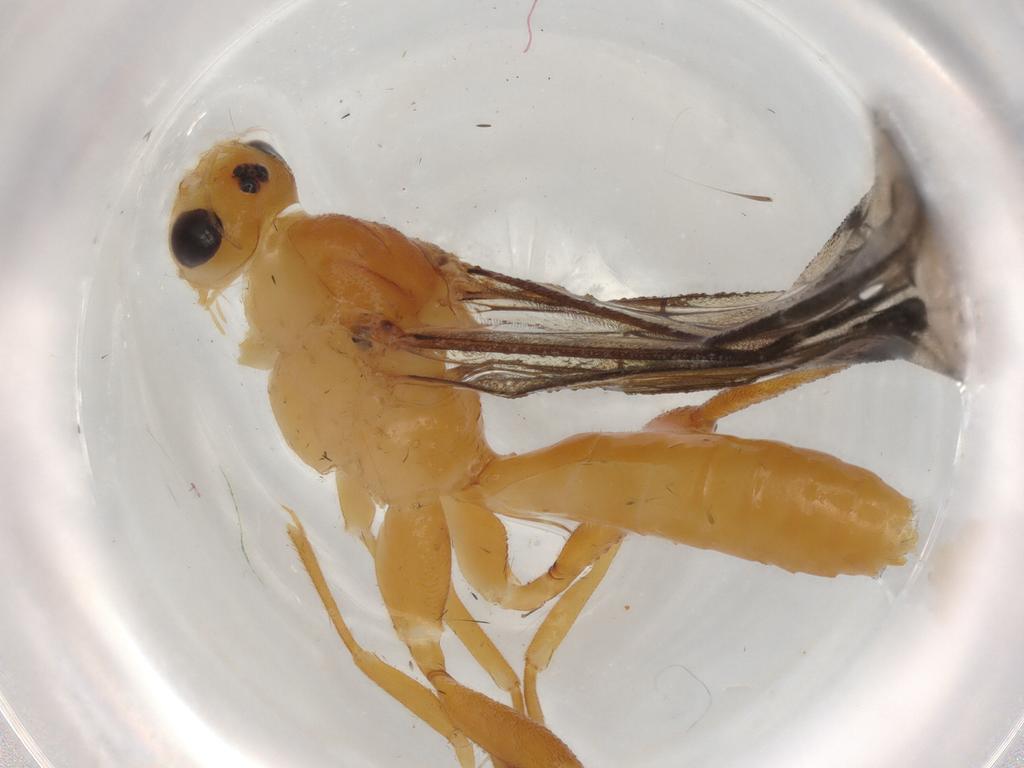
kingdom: Animalia
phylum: Arthropoda
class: Insecta
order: Hymenoptera
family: Braconidae
